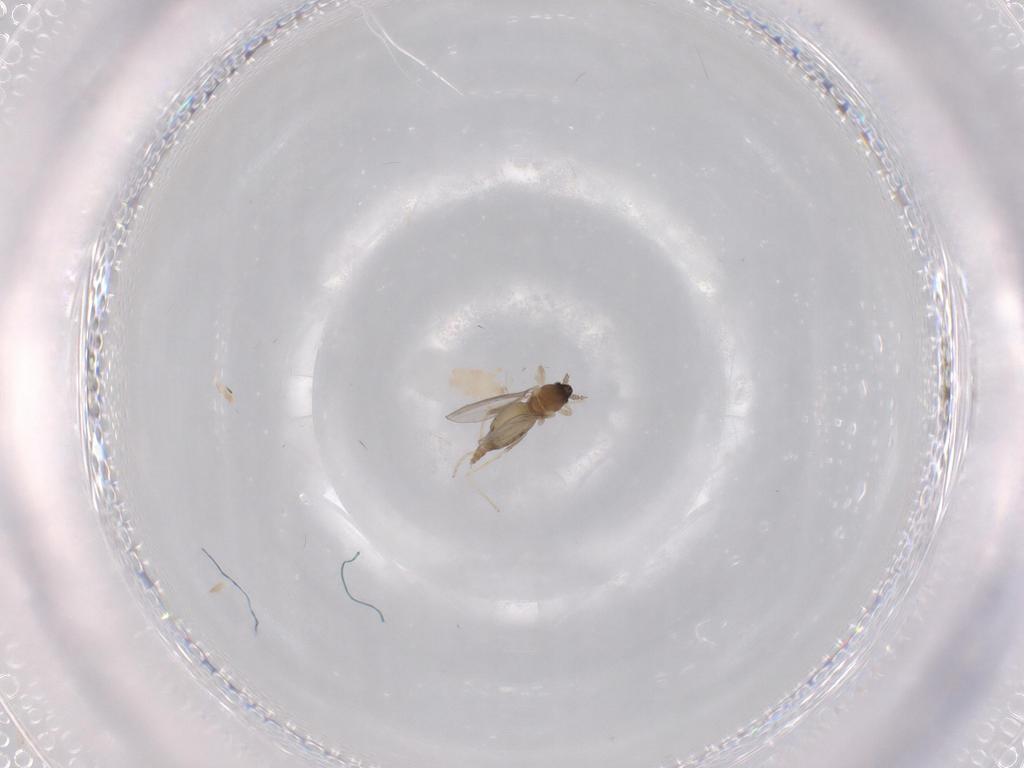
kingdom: Animalia
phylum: Arthropoda
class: Insecta
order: Diptera
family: Cecidomyiidae
